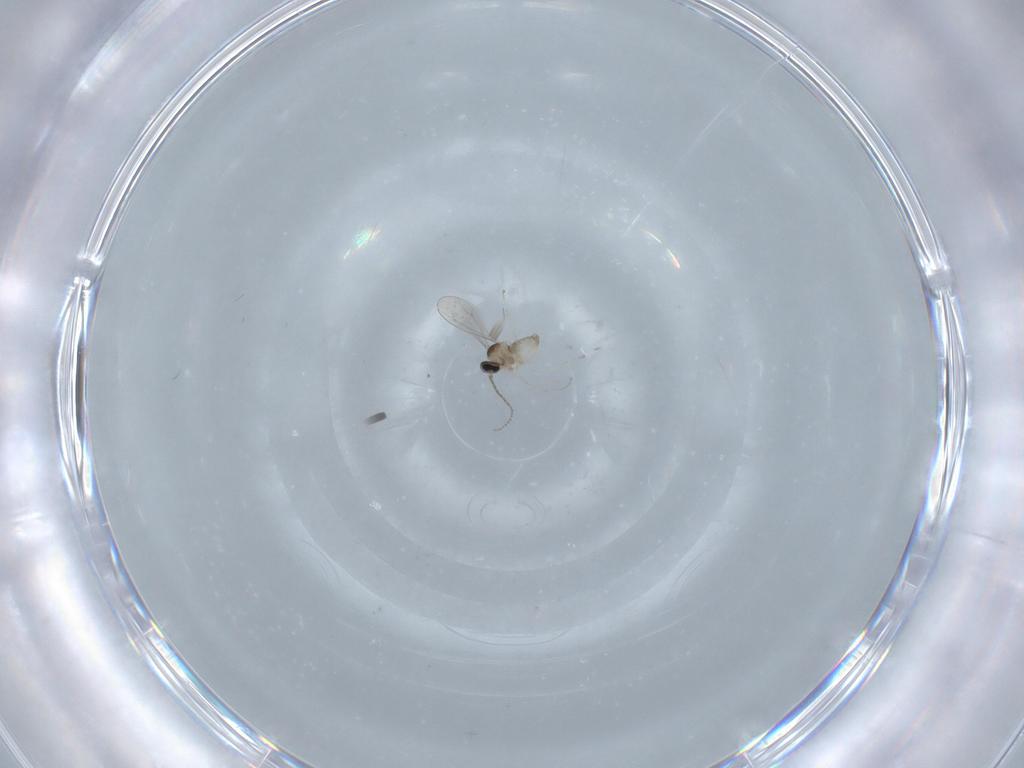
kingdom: Animalia
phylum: Arthropoda
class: Insecta
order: Diptera
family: Cecidomyiidae
